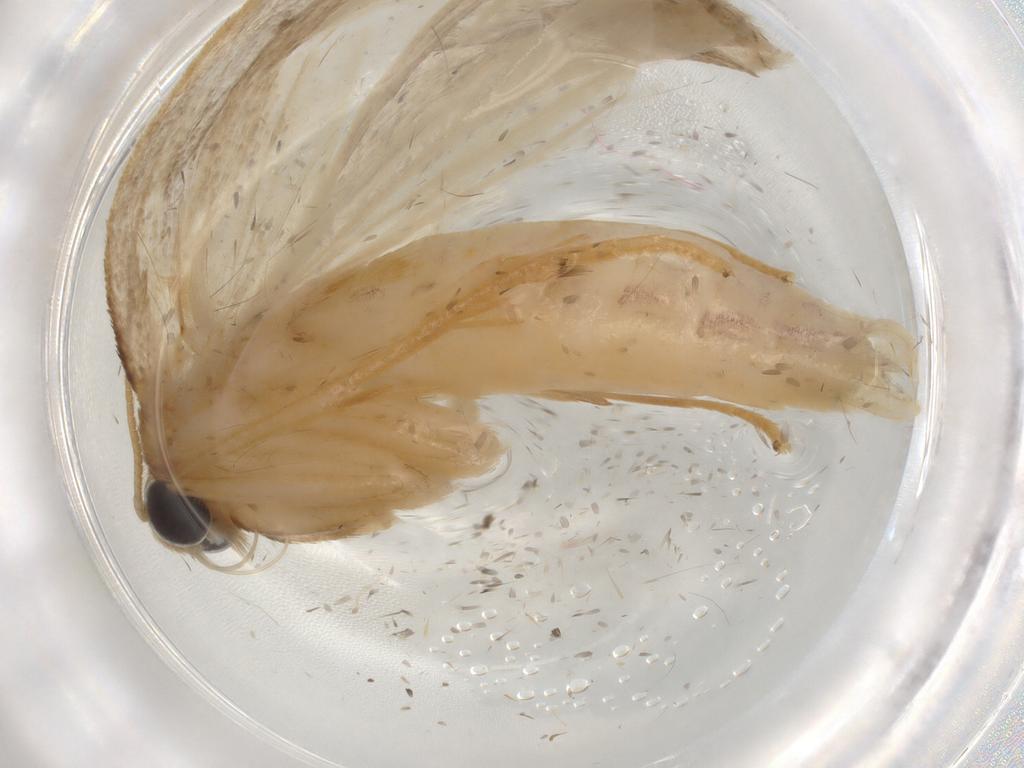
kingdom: Animalia
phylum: Arthropoda
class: Insecta
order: Lepidoptera
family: Crambidae
